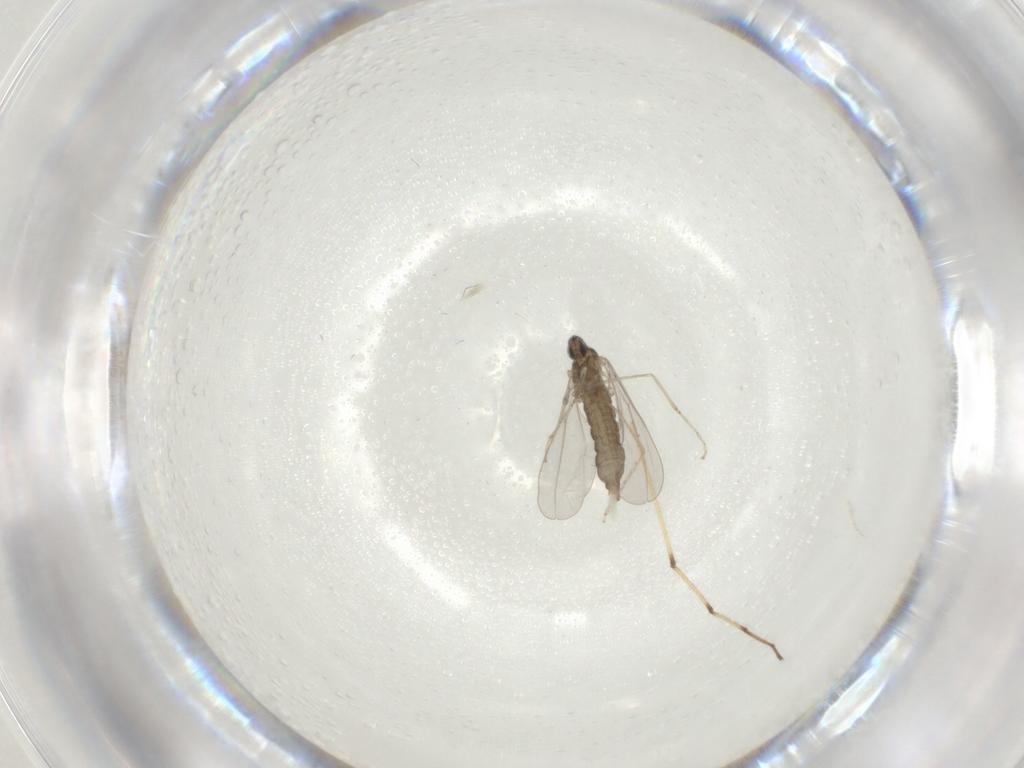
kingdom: Animalia
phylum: Arthropoda
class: Insecta
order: Diptera
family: Cecidomyiidae
